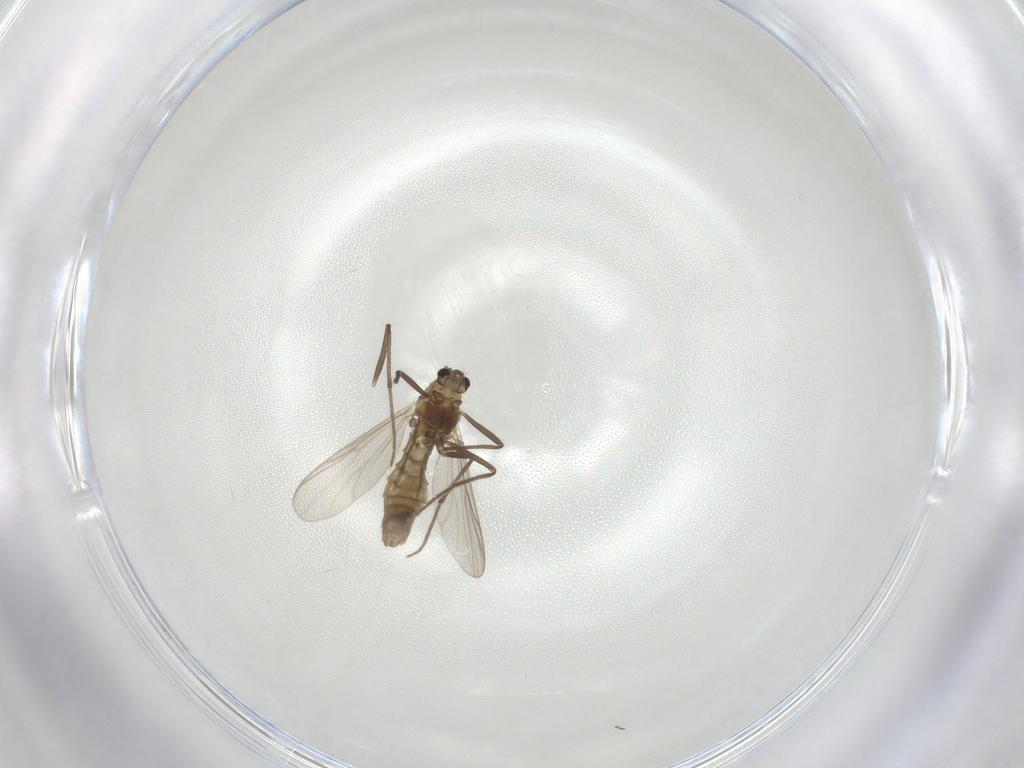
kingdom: Animalia
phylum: Arthropoda
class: Insecta
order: Diptera
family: Chironomidae
